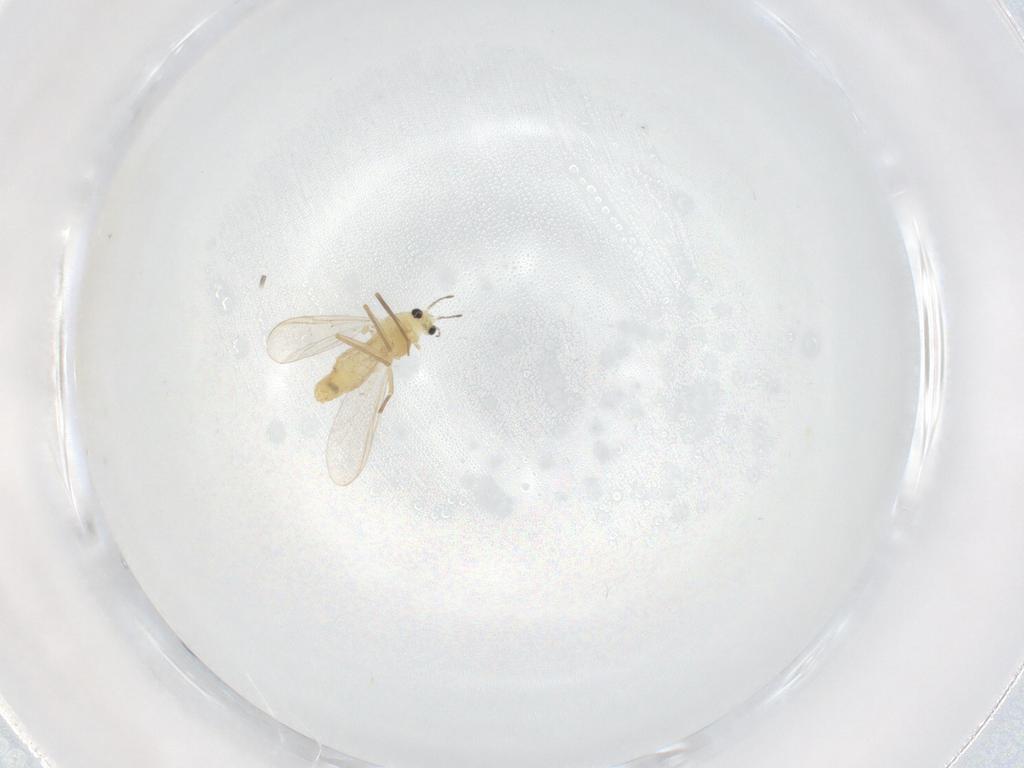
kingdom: Animalia
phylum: Arthropoda
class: Insecta
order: Diptera
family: Chironomidae
